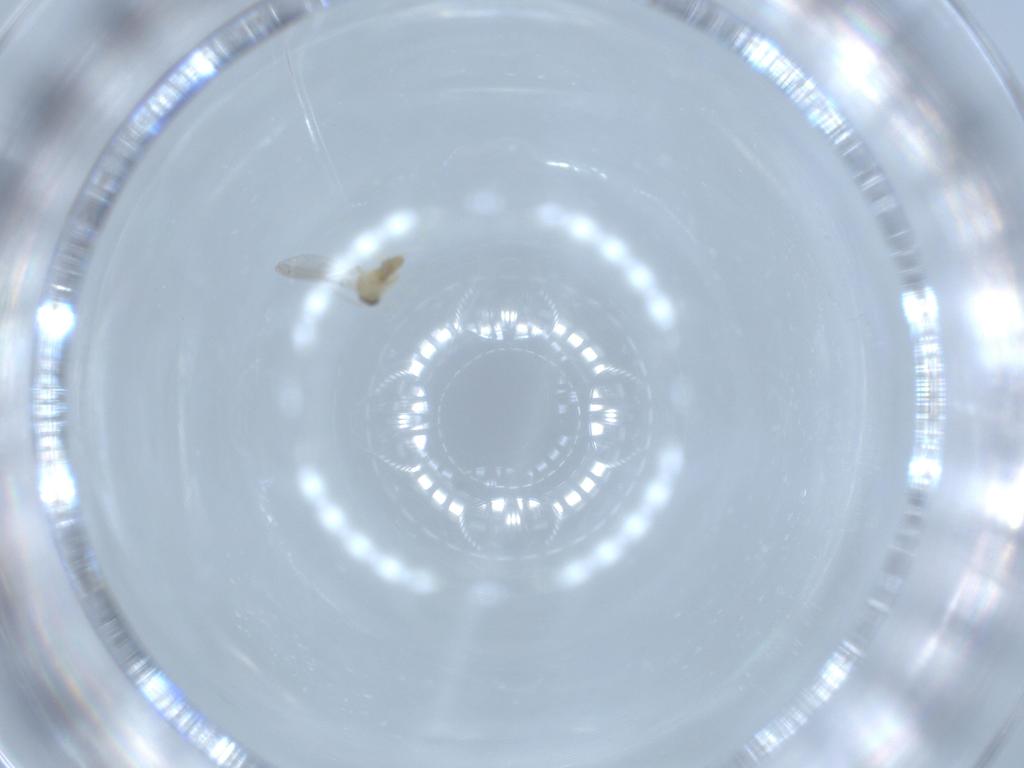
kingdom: Animalia
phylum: Arthropoda
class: Insecta
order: Diptera
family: Cecidomyiidae
